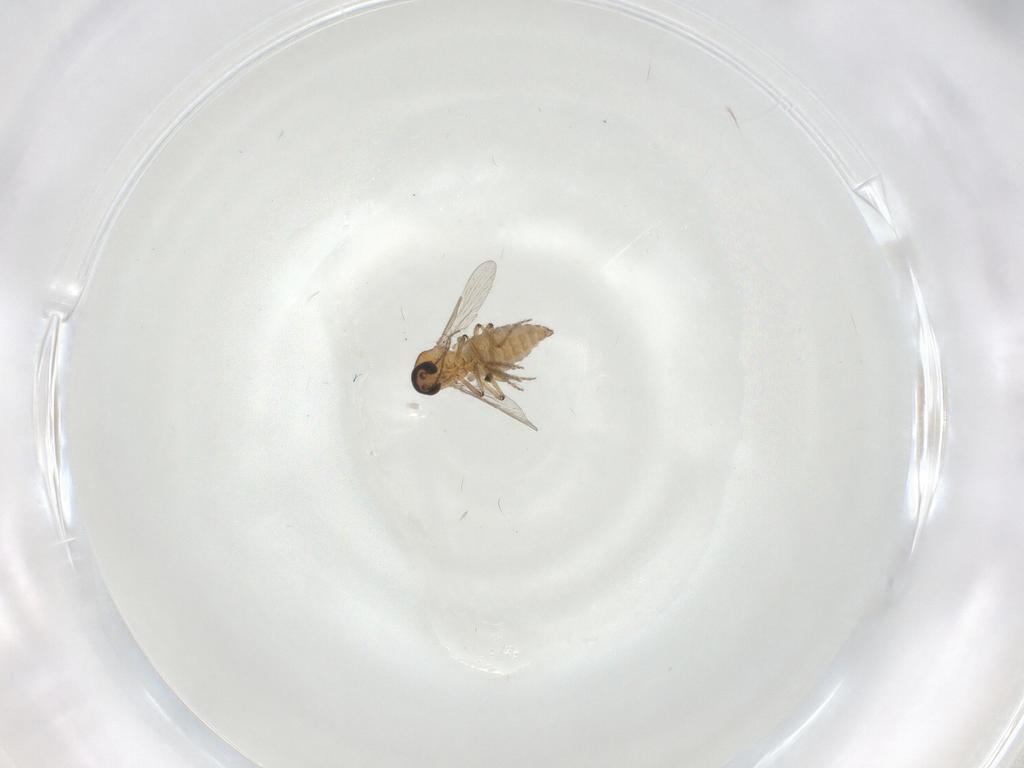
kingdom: Animalia
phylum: Arthropoda
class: Insecta
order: Diptera
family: Cecidomyiidae
